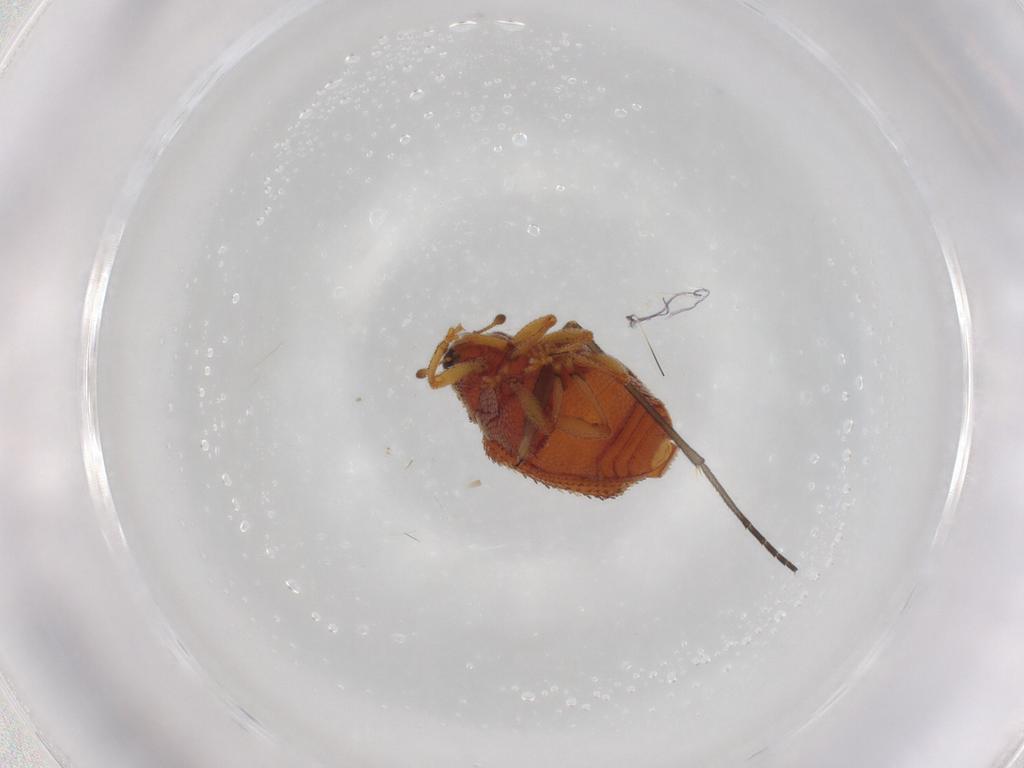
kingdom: Animalia
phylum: Arthropoda
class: Insecta
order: Coleoptera
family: Curculionidae
